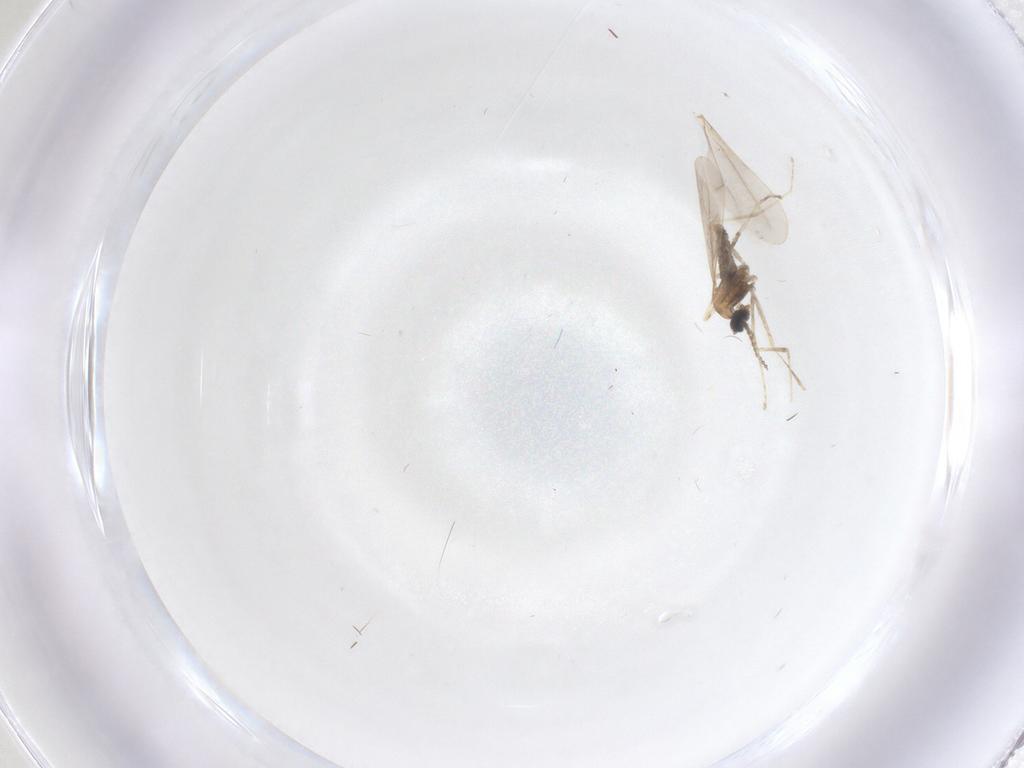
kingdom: Animalia
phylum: Arthropoda
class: Insecta
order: Diptera
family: Cecidomyiidae
